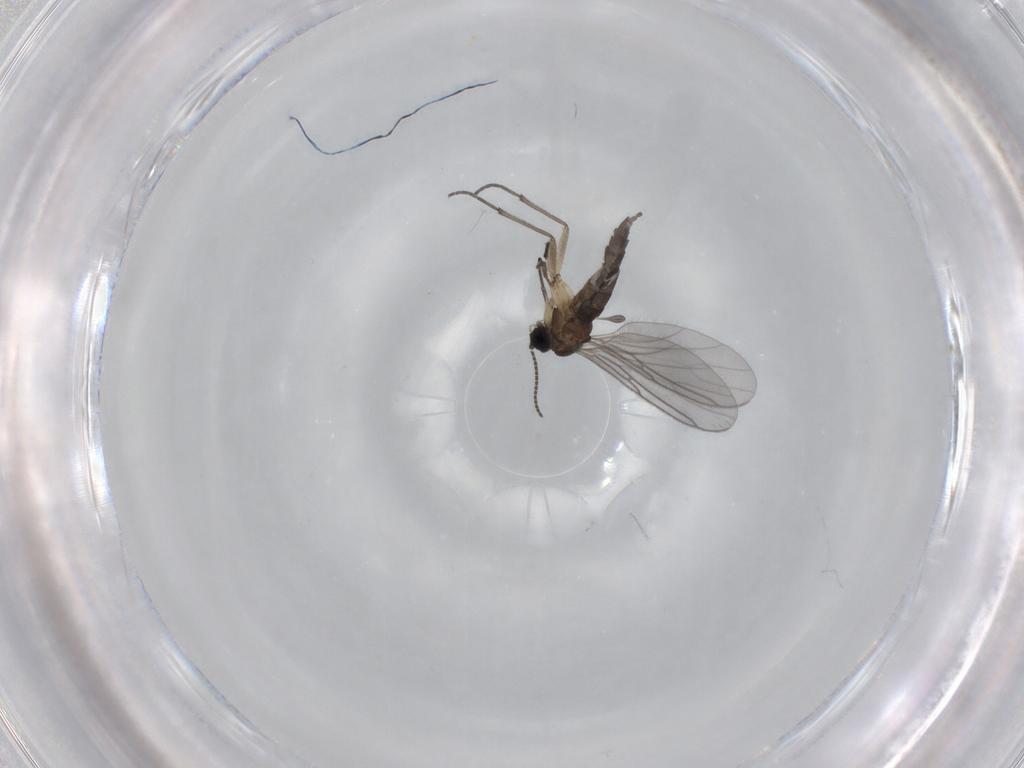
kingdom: Animalia
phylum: Arthropoda
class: Insecta
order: Diptera
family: Sciaridae
